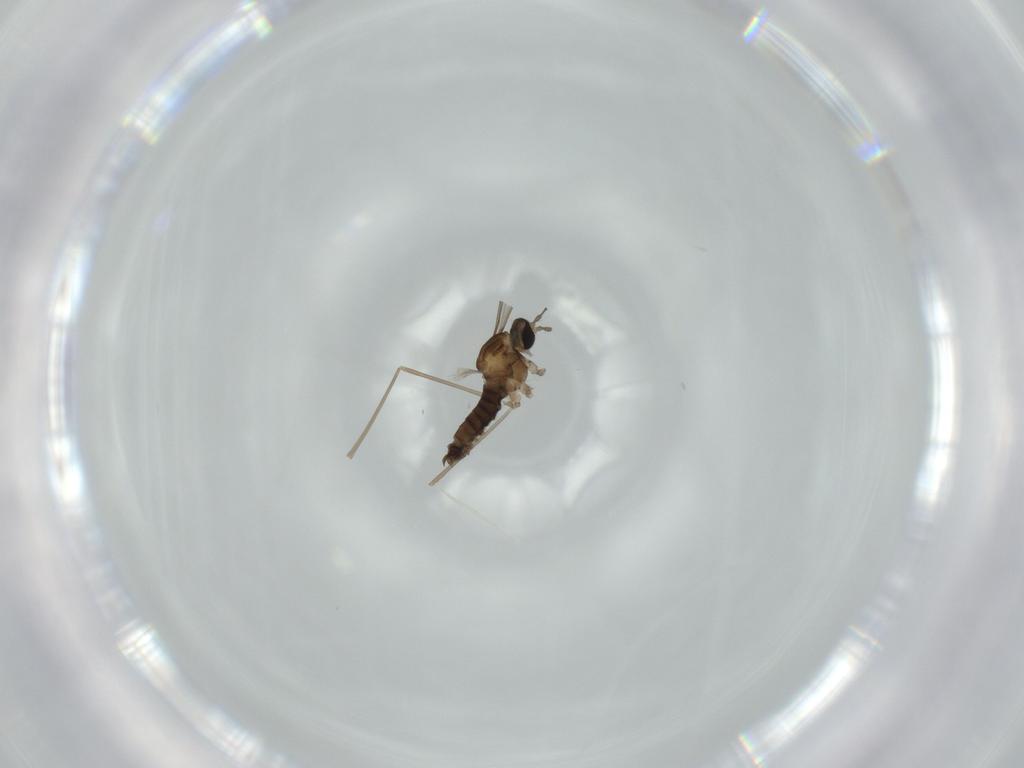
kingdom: Animalia
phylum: Arthropoda
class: Insecta
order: Diptera
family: Cecidomyiidae
